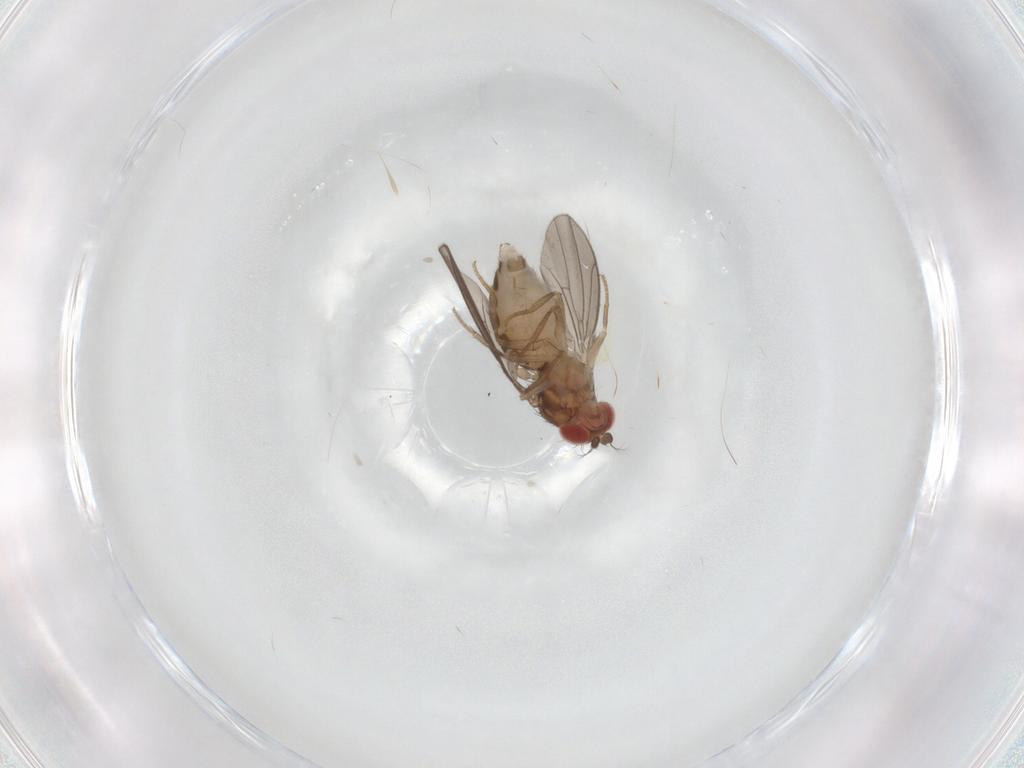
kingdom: Animalia
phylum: Arthropoda
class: Insecta
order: Diptera
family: Drosophilidae
